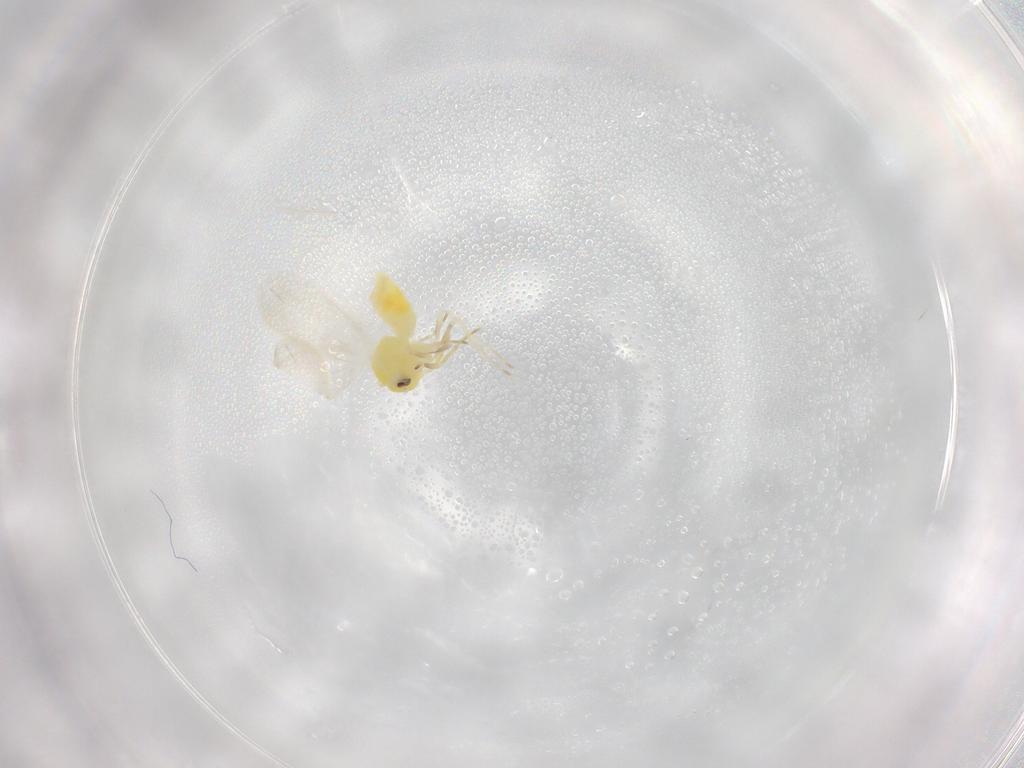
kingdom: Animalia
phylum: Arthropoda
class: Insecta
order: Hemiptera
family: Aleyrodidae
